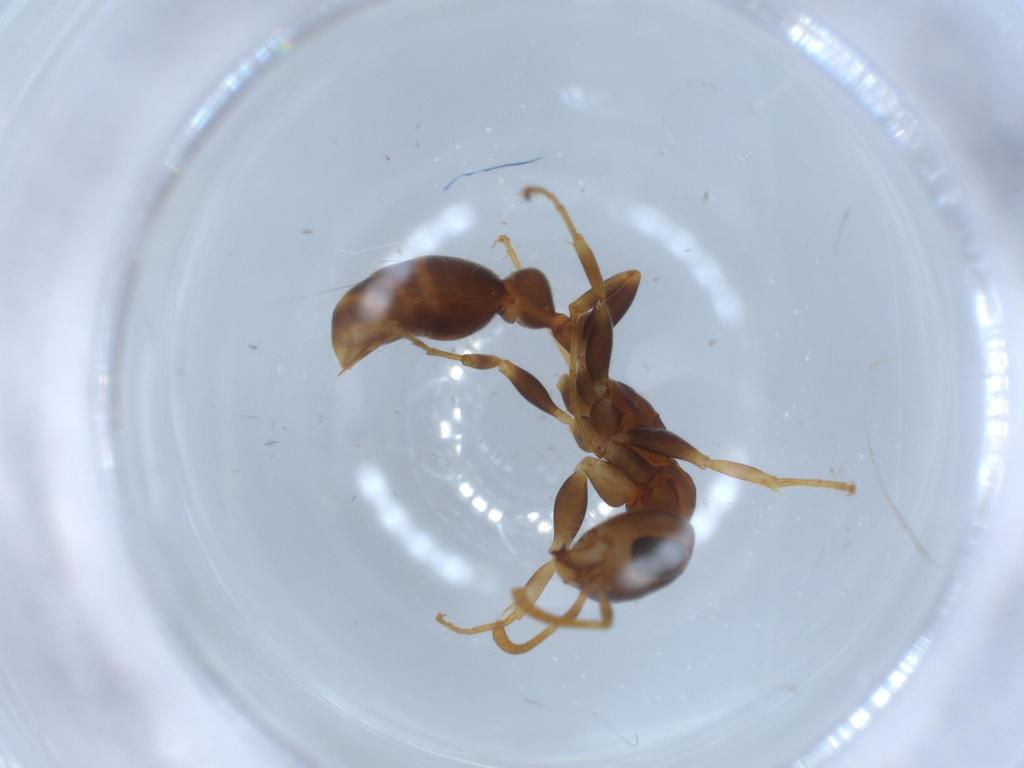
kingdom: Animalia
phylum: Arthropoda
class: Insecta
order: Hymenoptera
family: Formicidae
